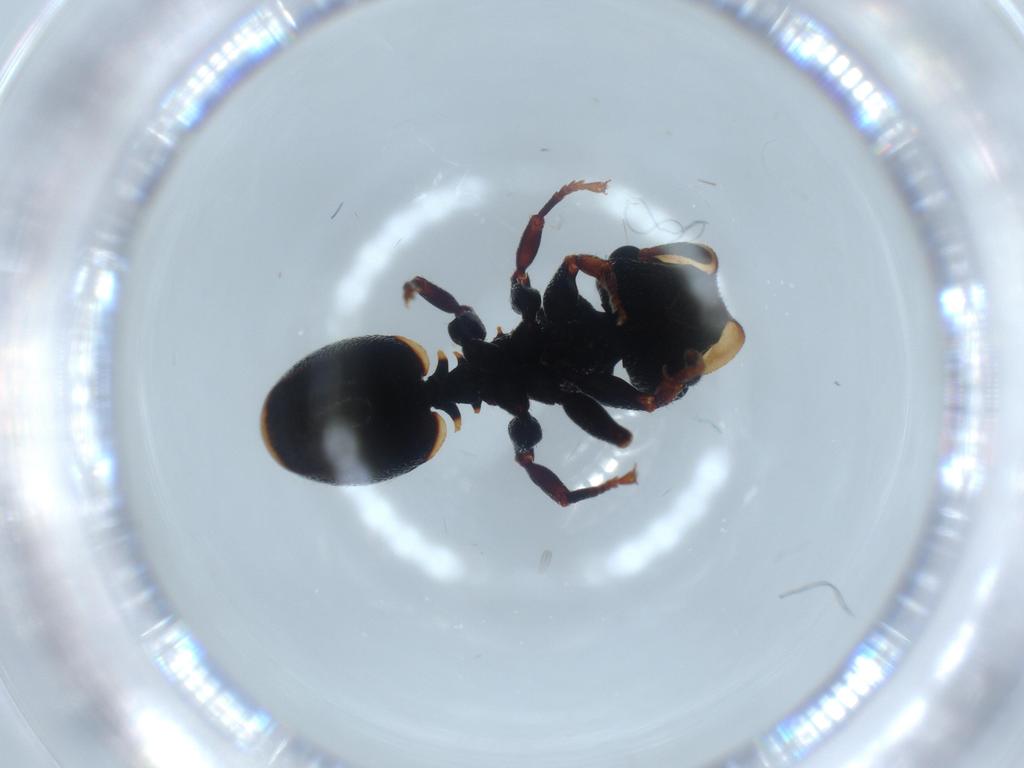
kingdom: Animalia
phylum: Arthropoda
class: Insecta
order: Hymenoptera
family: Formicidae
